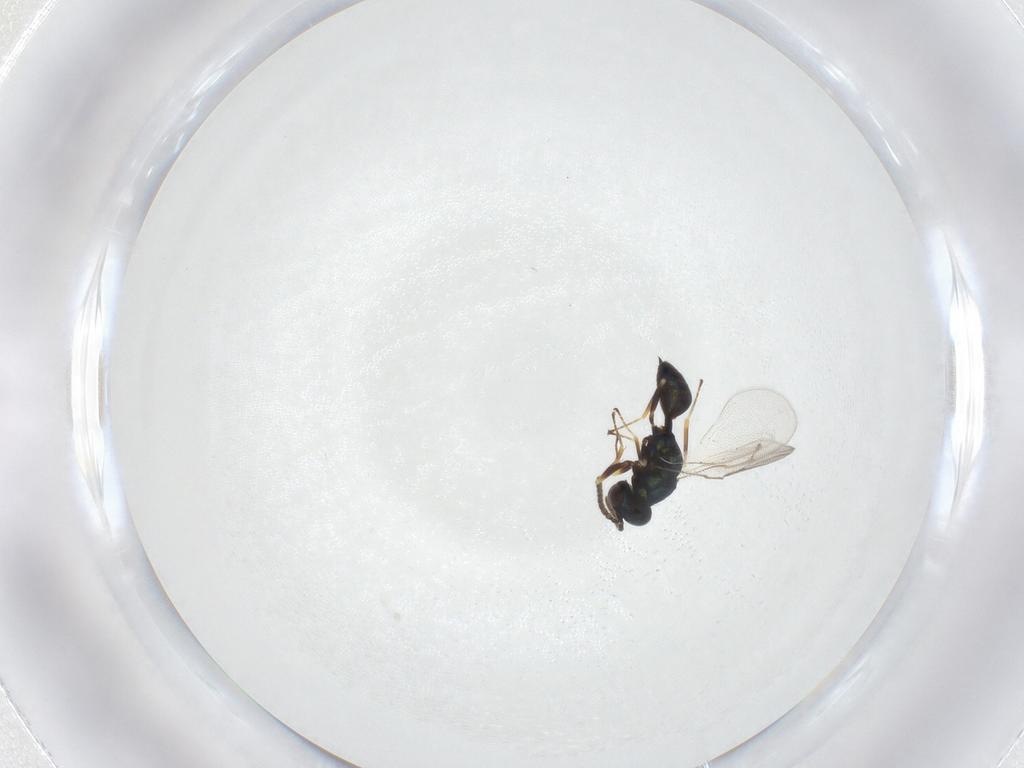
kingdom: Animalia
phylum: Arthropoda
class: Insecta
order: Hymenoptera
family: Pteromalidae
